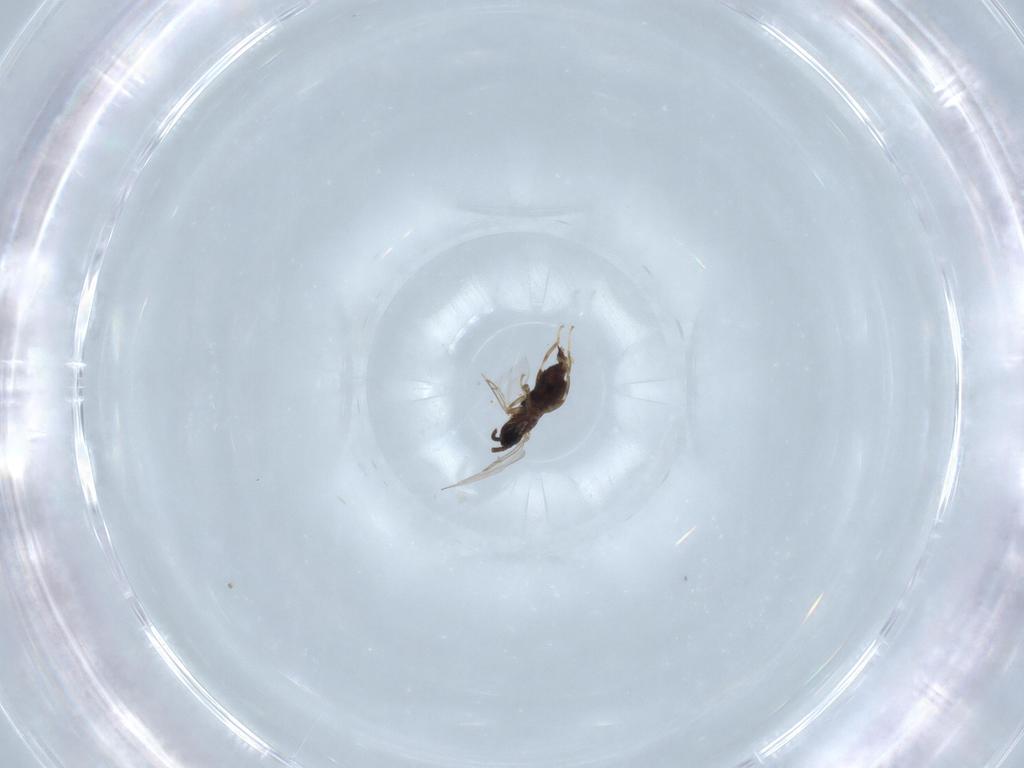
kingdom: Animalia
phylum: Arthropoda
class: Insecta
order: Diptera
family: Scatopsidae
